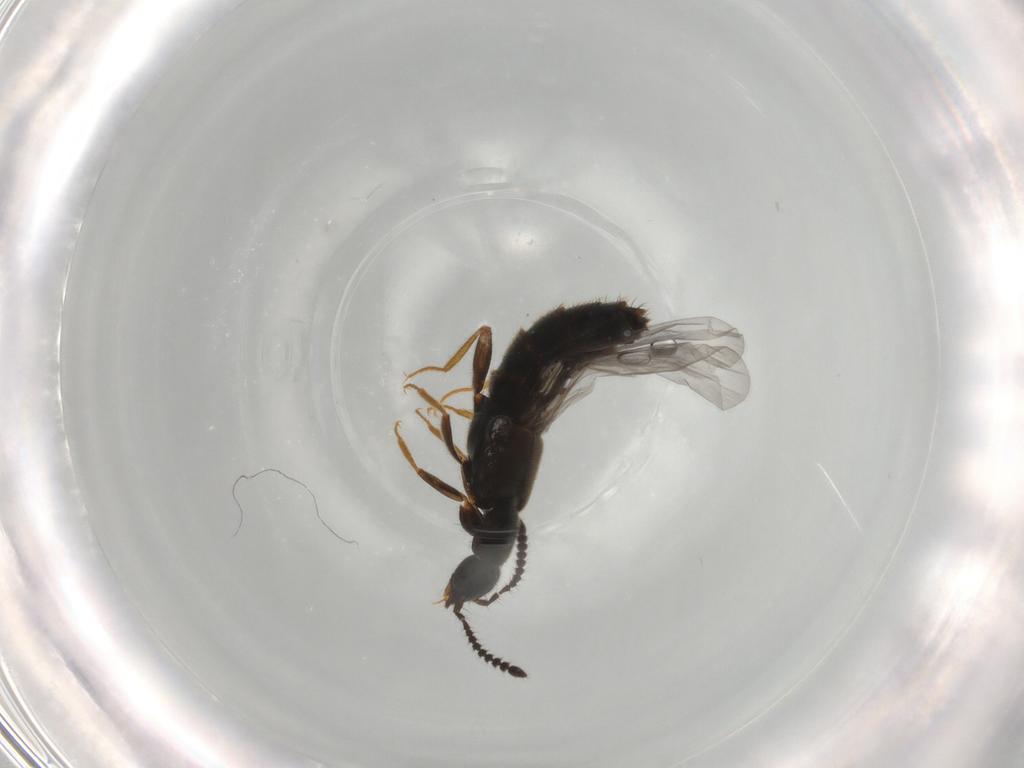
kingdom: Animalia
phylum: Arthropoda
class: Insecta
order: Coleoptera
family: Staphylinidae
